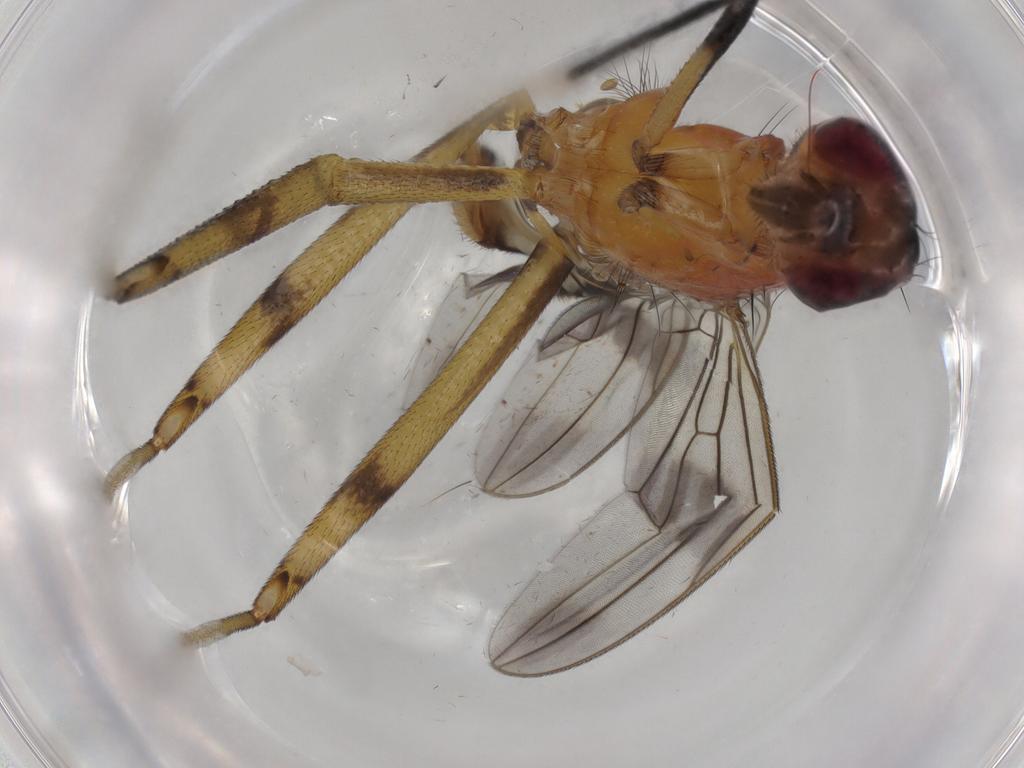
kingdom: Animalia
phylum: Arthropoda
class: Insecta
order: Diptera
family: Micropezidae
